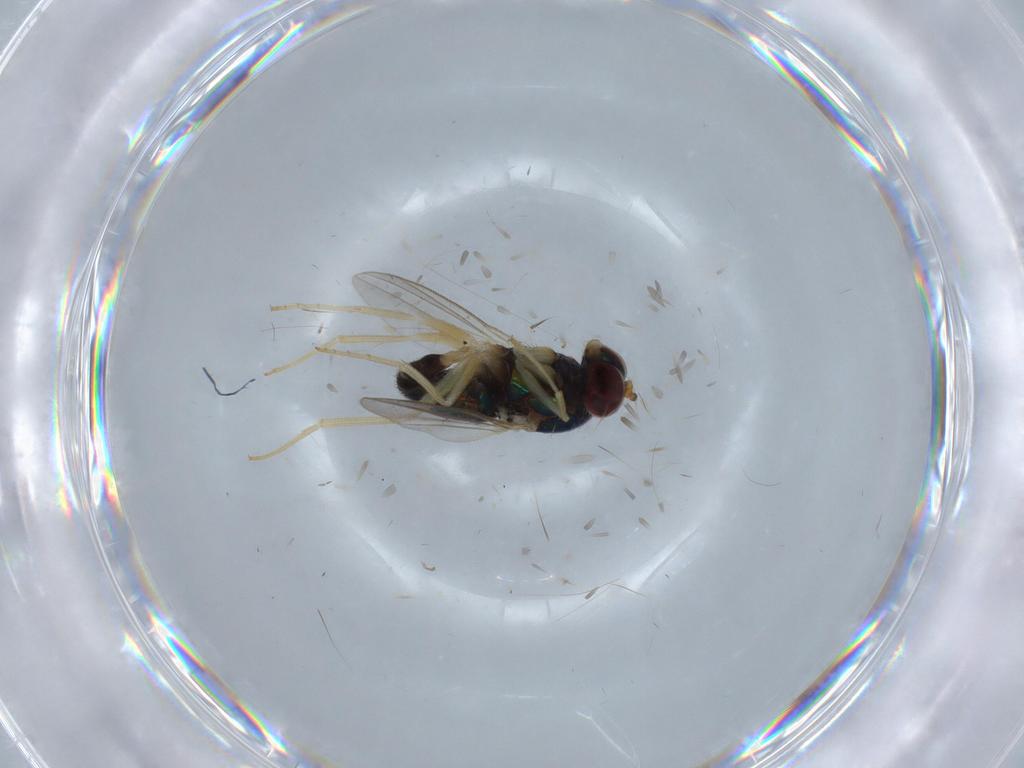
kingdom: Animalia
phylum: Arthropoda
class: Insecta
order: Diptera
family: Dolichopodidae
